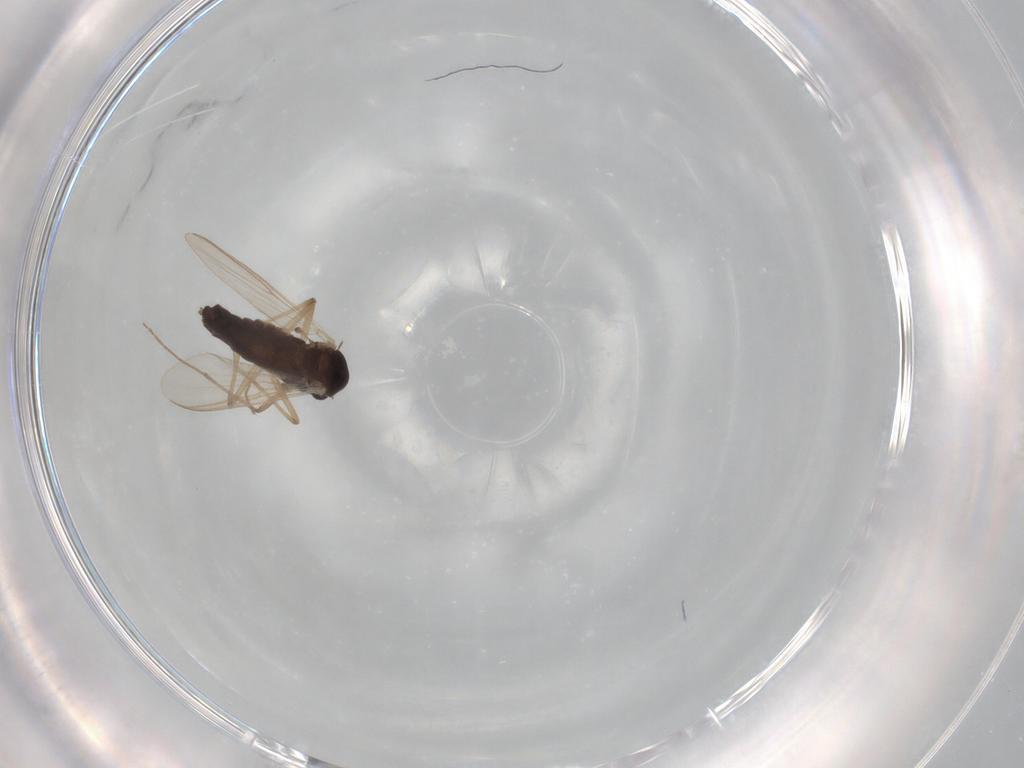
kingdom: Animalia
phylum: Arthropoda
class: Insecta
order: Diptera
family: Chironomidae
